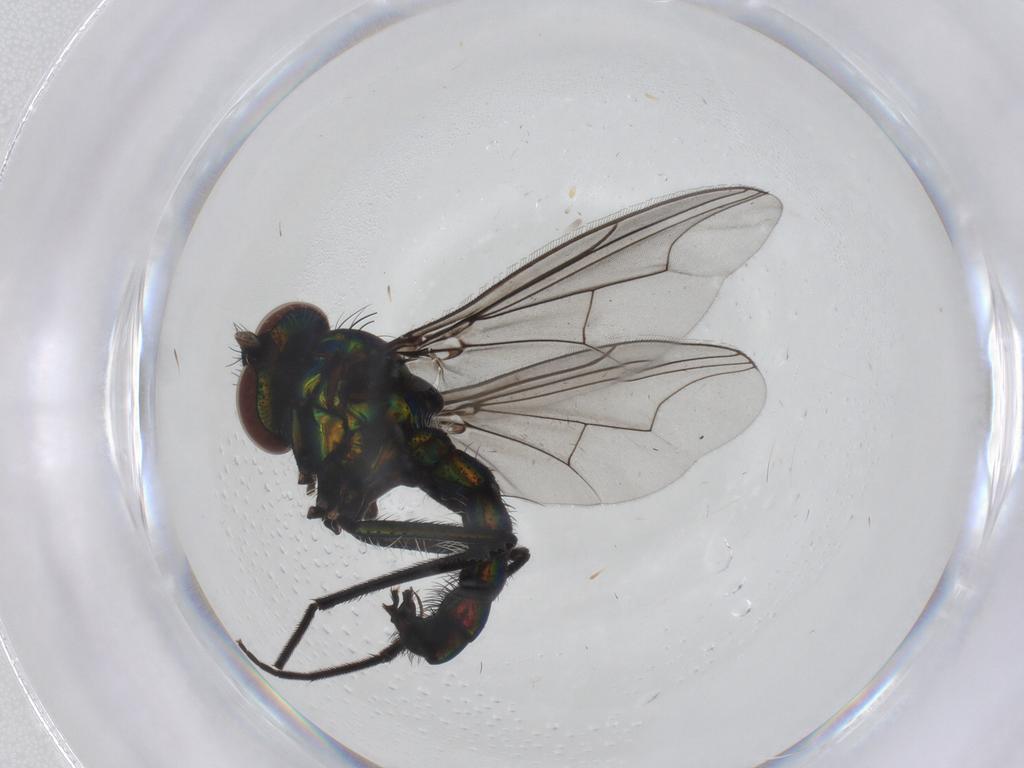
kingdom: Animalia
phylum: Arthropoda
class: Insecta
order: Diptera
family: Dolichopodidae
